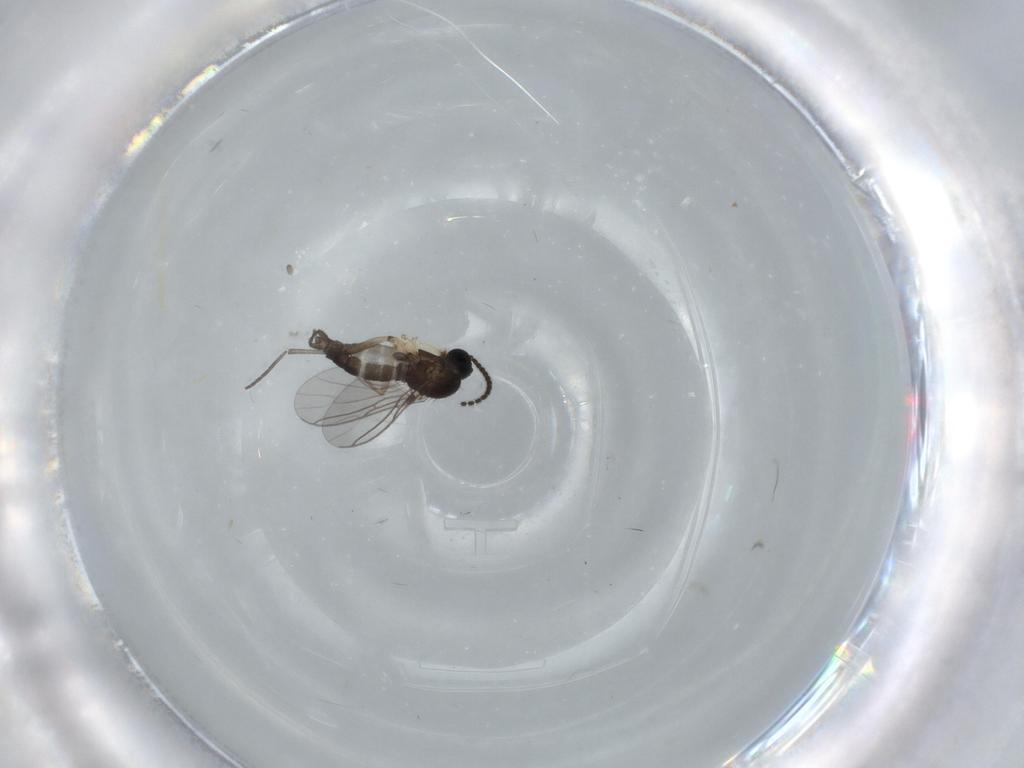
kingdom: Animalia
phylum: Arthropoda
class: Insecta
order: Diptera
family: Sciaridae
